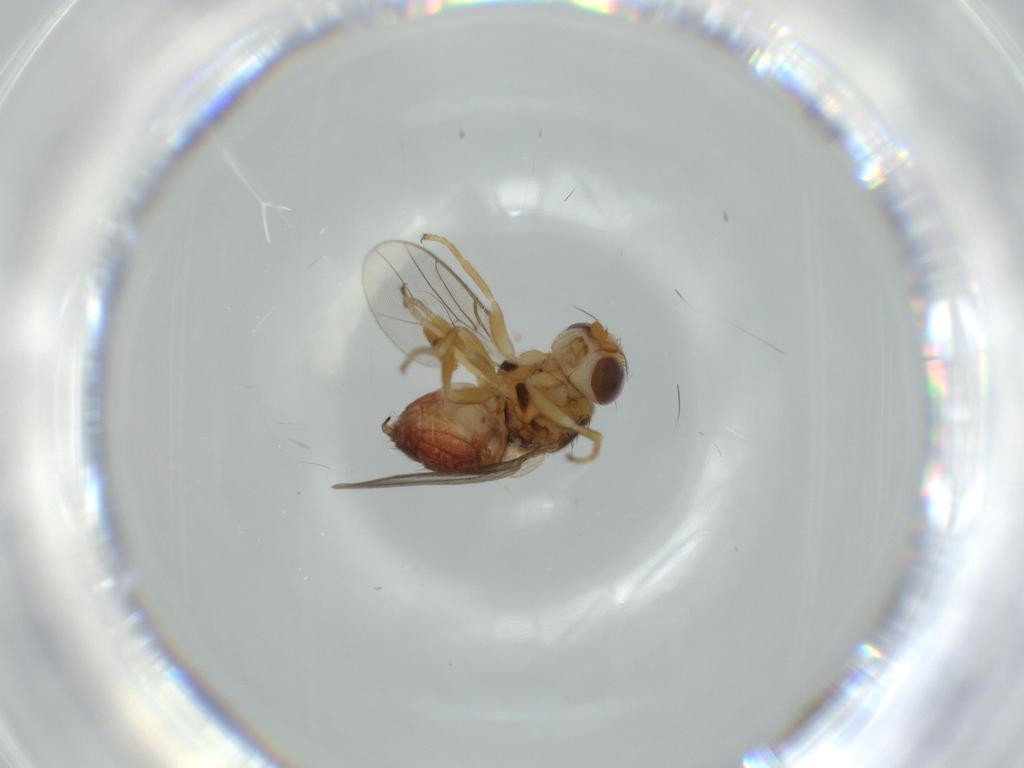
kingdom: Animalia
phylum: Arthropoda
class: Insecta
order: Diptera
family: Chloropidae
